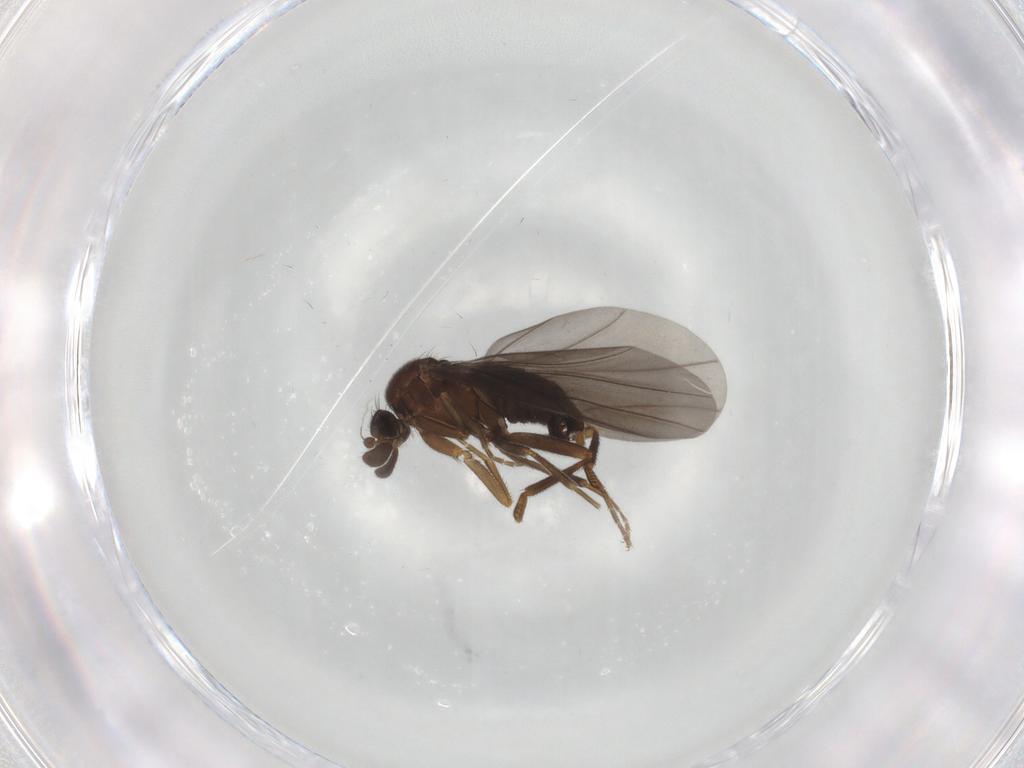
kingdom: Animalia
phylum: Arthropoda
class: Insecta
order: Diptera
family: Phoridae
